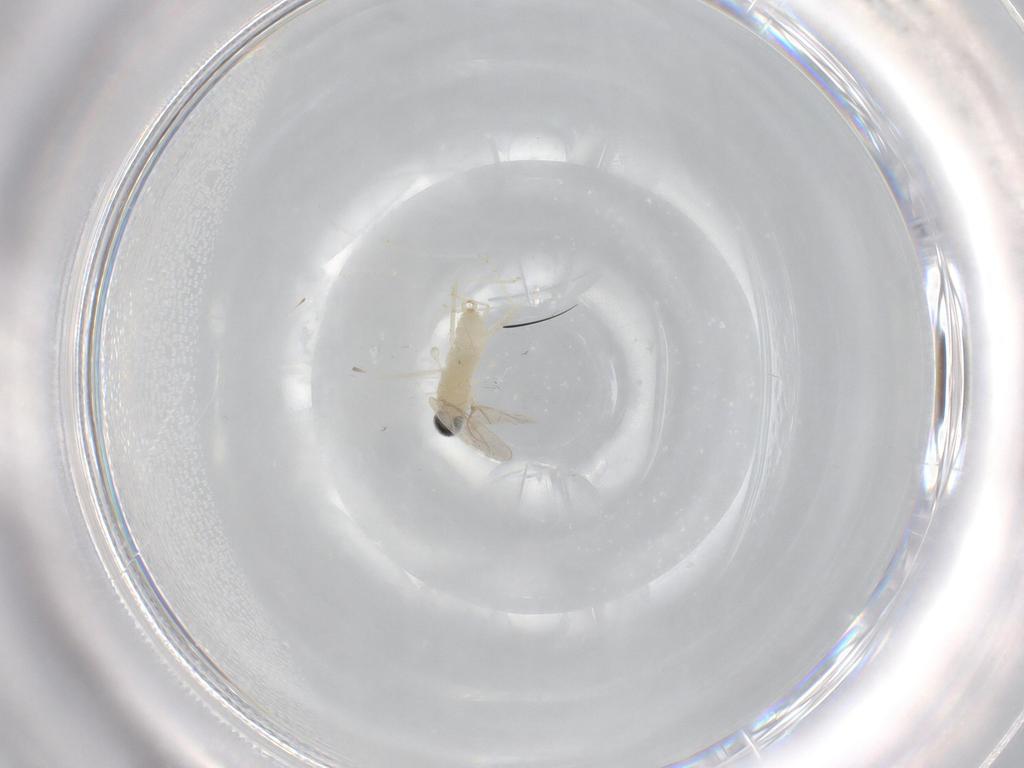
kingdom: Animalia
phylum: Arthropoda
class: Insecta
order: Diptera
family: Cecidomyiidae
